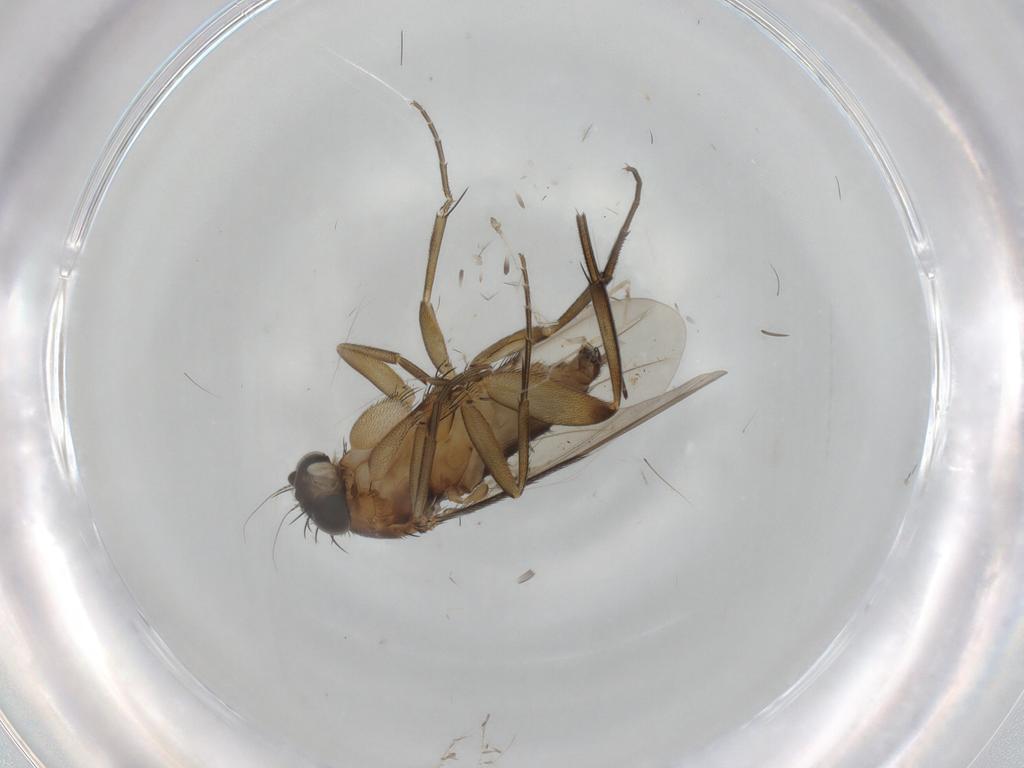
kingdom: Animalia
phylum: Arthropoda
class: Insecta
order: Diptera
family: Phoridae
